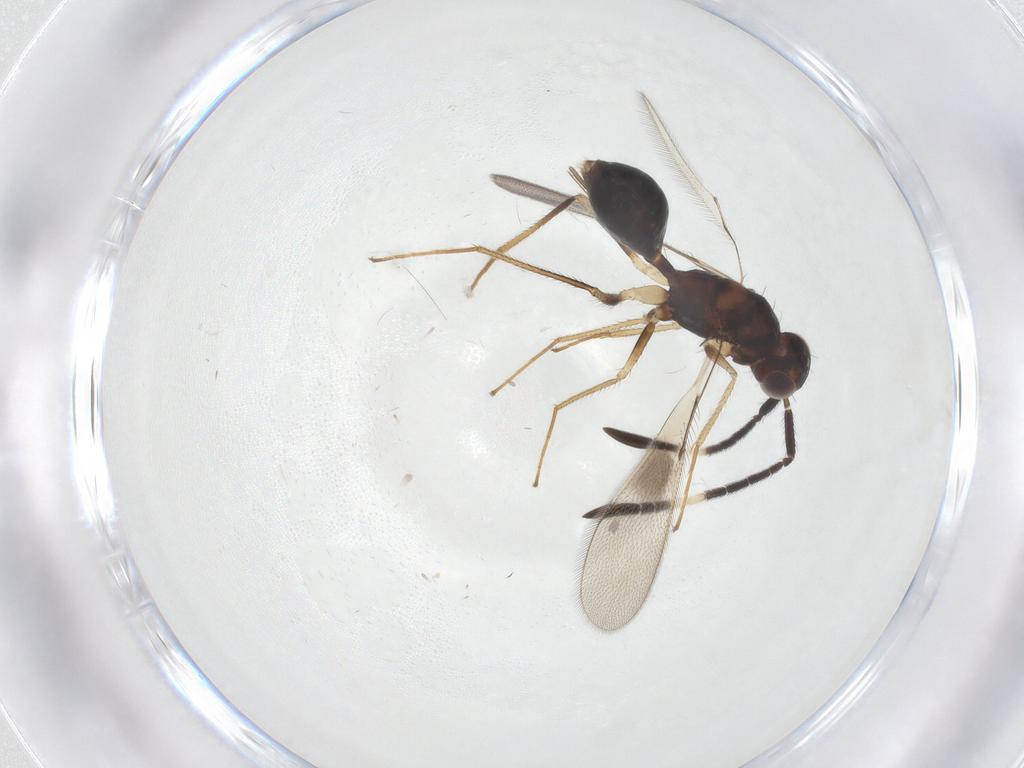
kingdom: Animalia
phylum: Arthropoda
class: Insecta
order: Hymenoptera
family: Mymaridae
